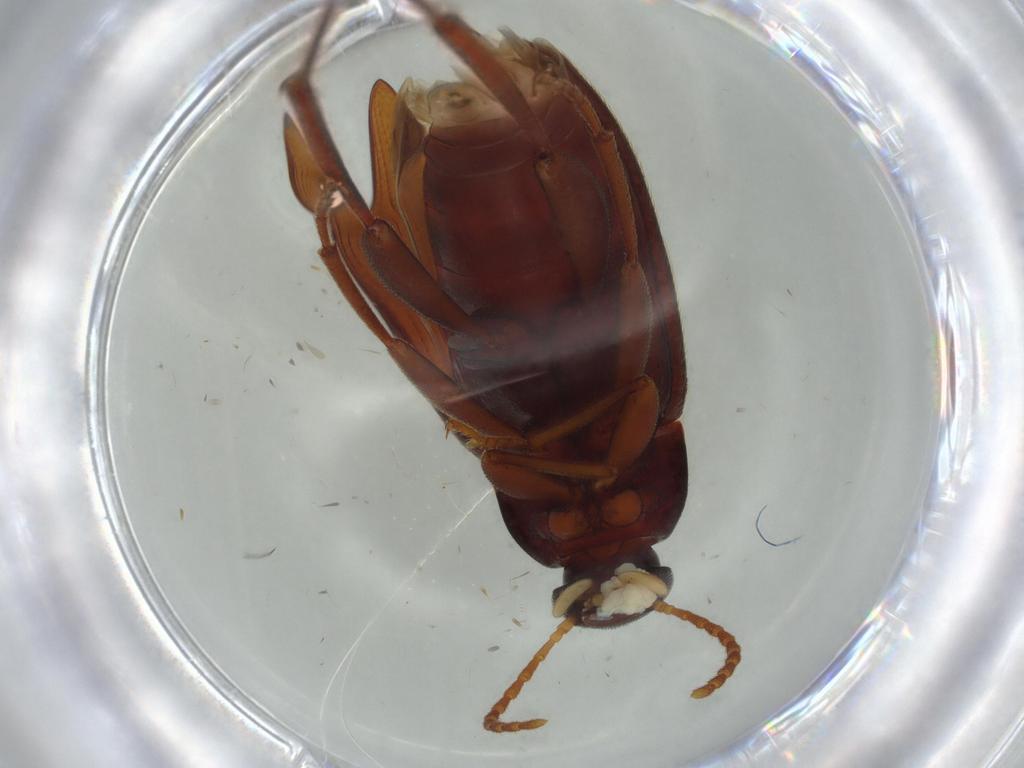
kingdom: Animalia
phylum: Arthropoda
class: Insecta
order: Coleoptera
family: Tenebrionidae
